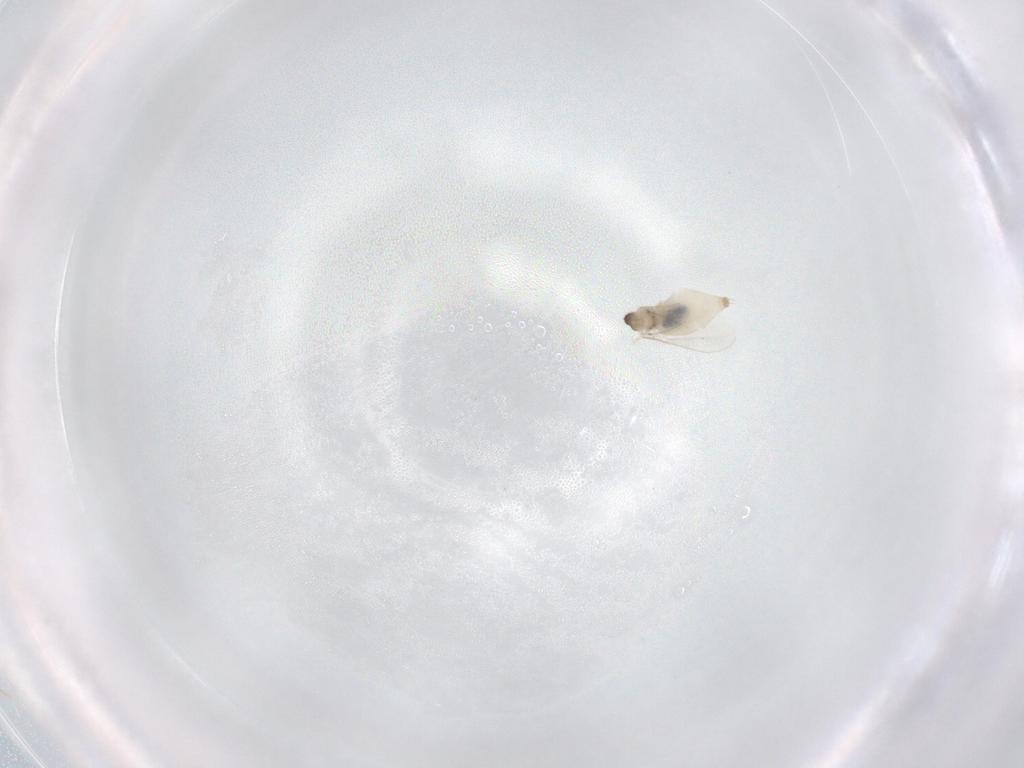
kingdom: Animalia
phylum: Arthropoda
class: Insecta
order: Diptera
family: Cecidomyiidae
